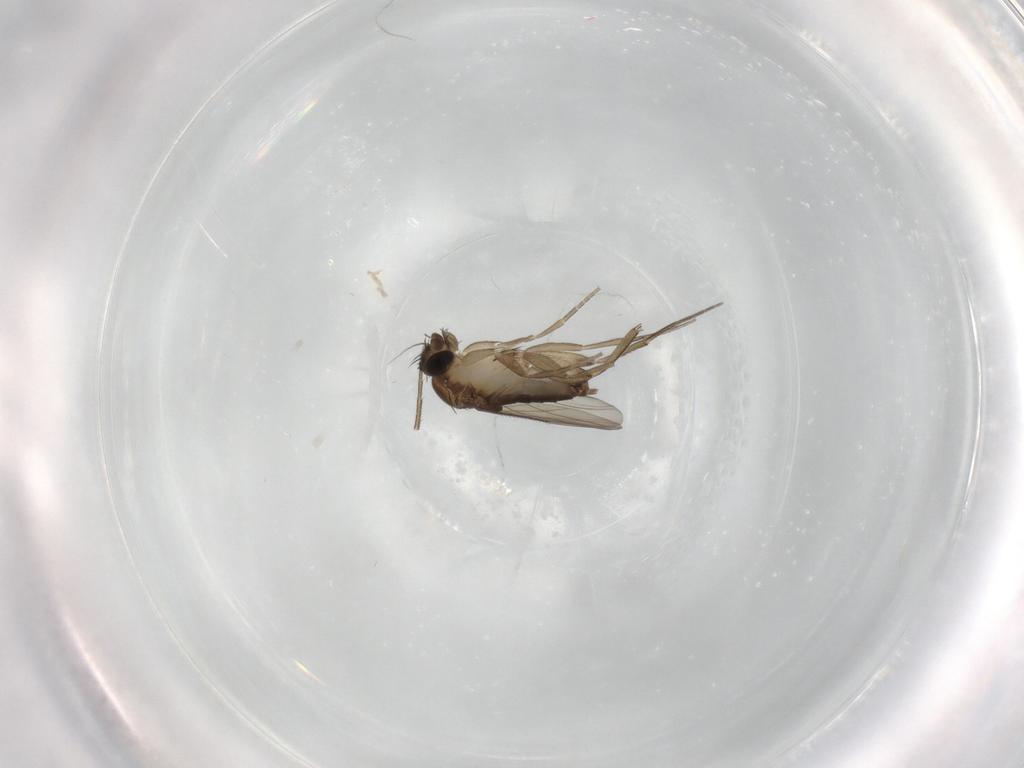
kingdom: Animalia
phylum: Arthropoda
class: Insecta
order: Diptera
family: Phoridae
